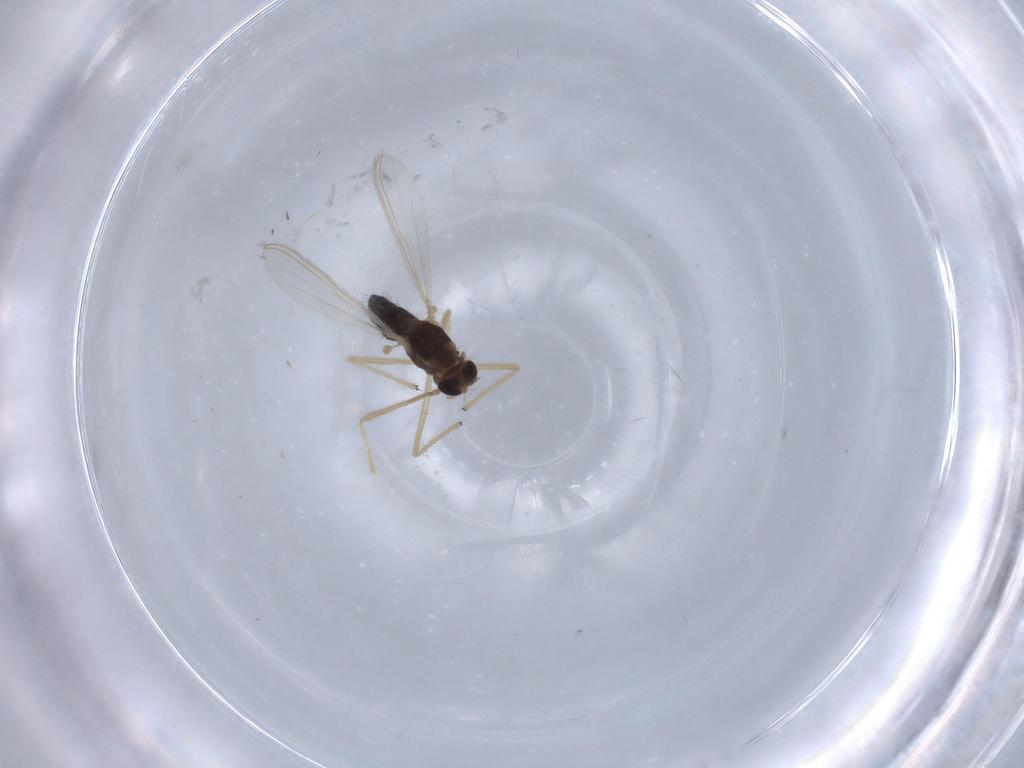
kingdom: Animalia
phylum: Arthropoda
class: Insecta
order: Diptera
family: Chironomidae
